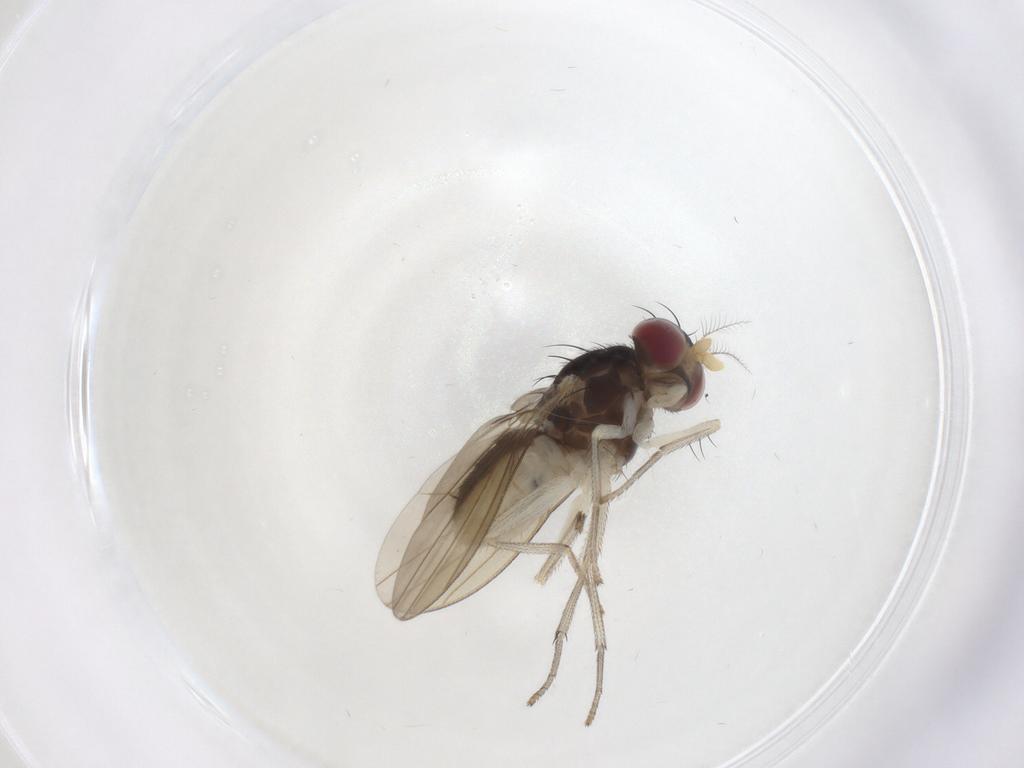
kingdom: Animalia
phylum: Arthropoda
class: Insecta
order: Diptera
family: Lauxaniidae
